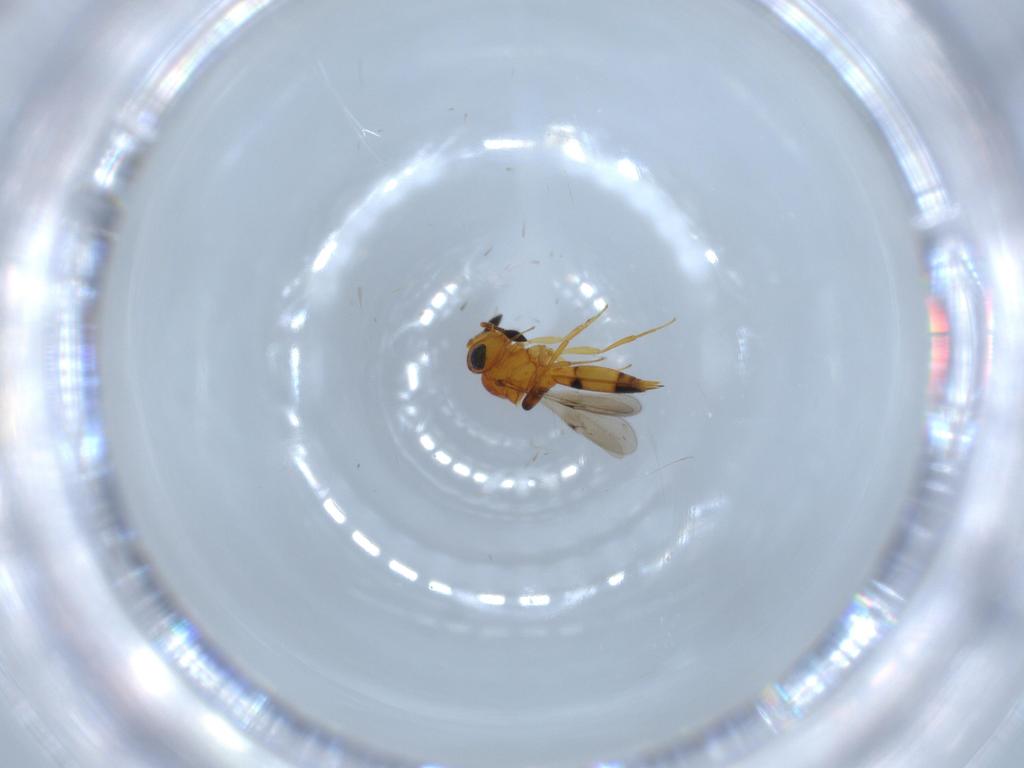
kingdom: Animalia
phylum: Arthropoda
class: Insecta
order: Hymenoptera
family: Scelionidae
